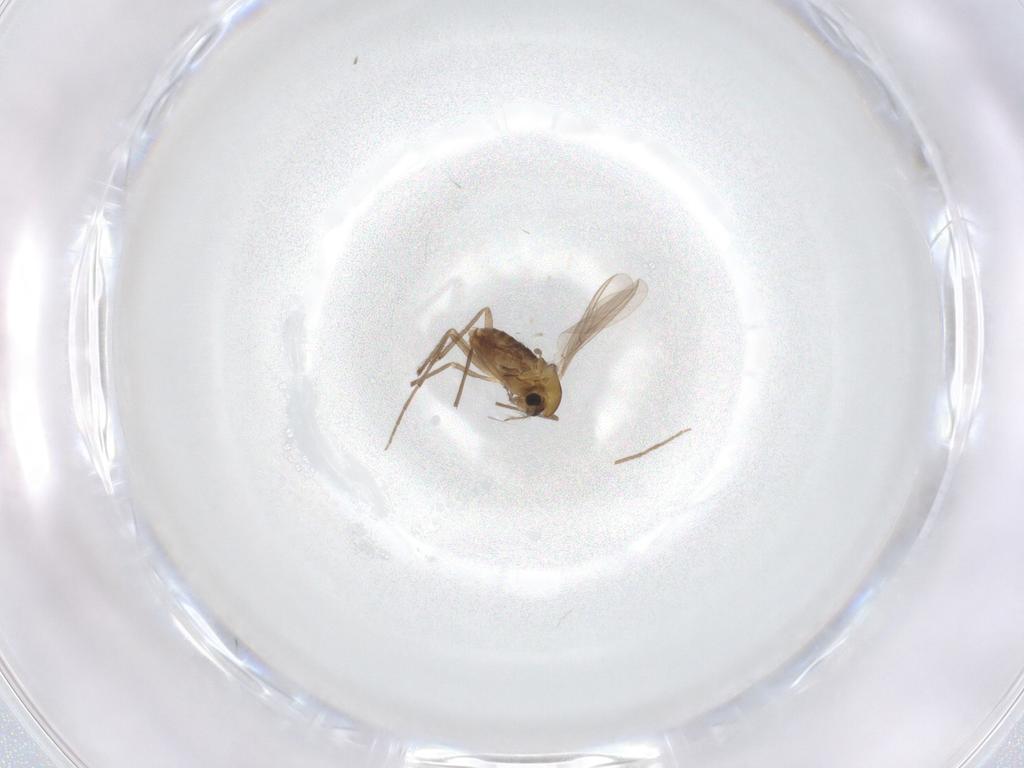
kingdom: Animalia
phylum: Arthropoda
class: Insecta
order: Diptera
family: Chironomidae
